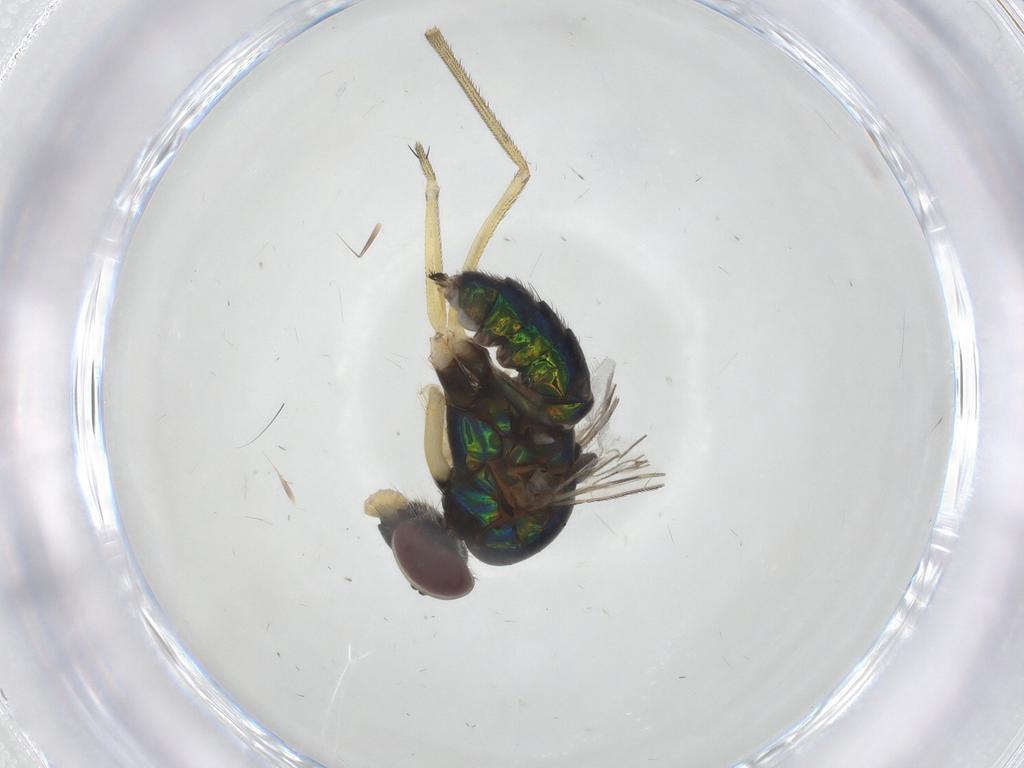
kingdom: Animalia
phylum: Arthropoda
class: Insecta
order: Diptera
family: Dolichopodidae
